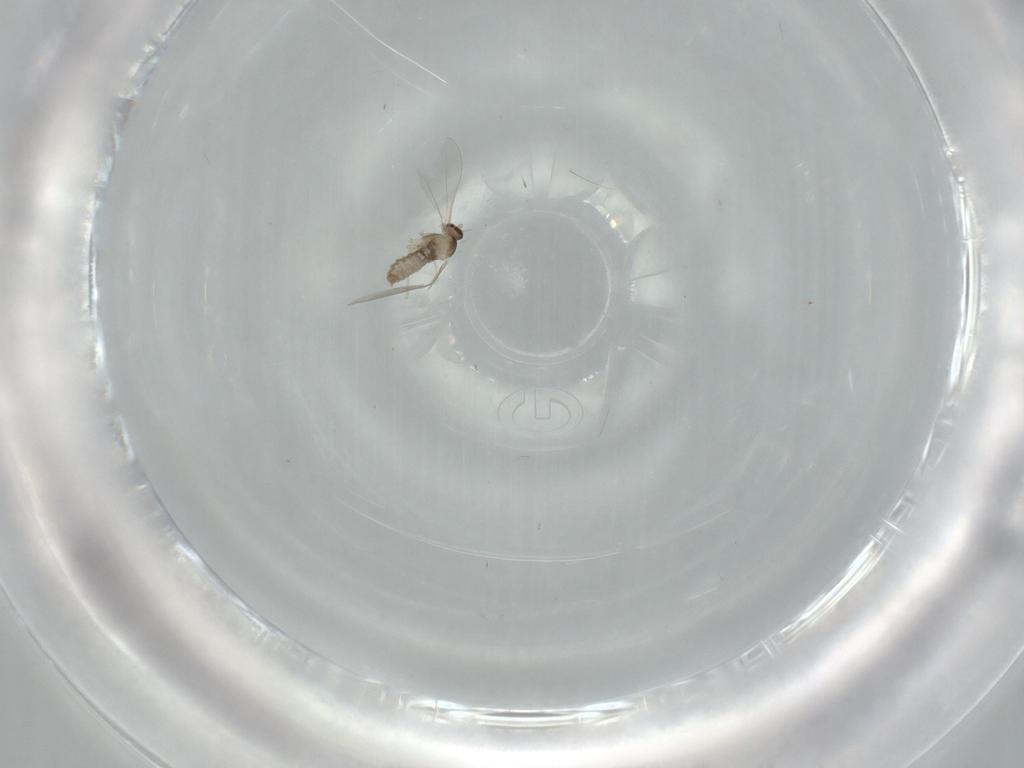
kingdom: Animalia
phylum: Arthropoda
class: Insecta
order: Diptera
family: Cecidomyiidae
